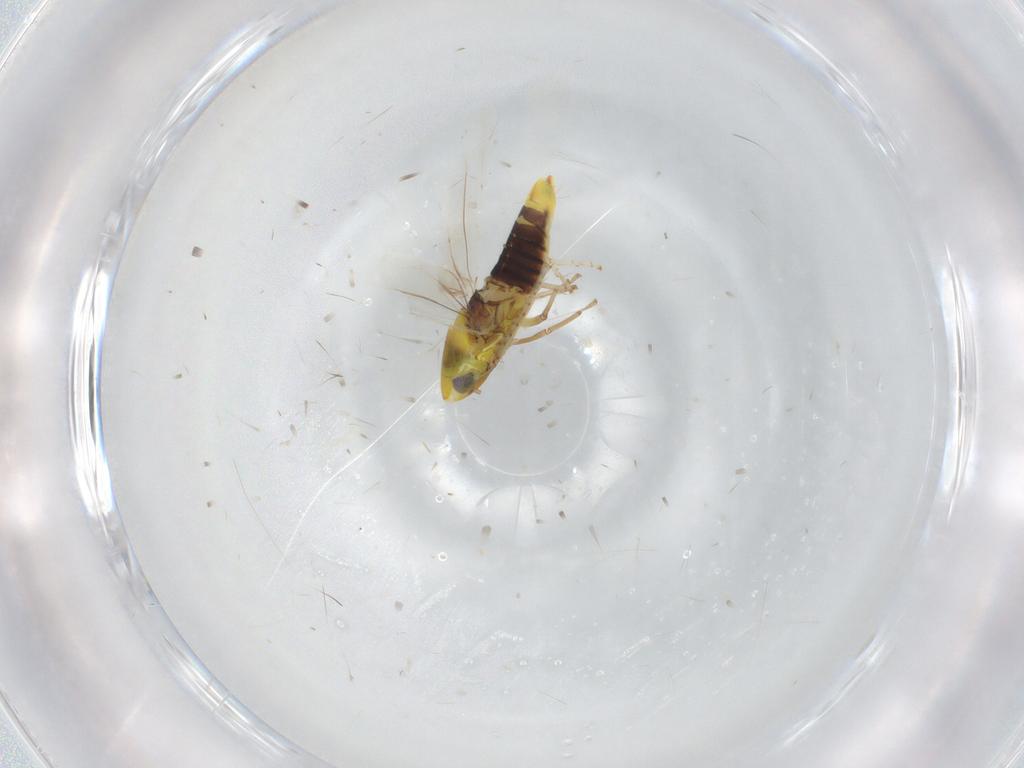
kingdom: Animalia
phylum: Arthropoda
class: Insecta
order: Hemiptera
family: Cicadellidae
